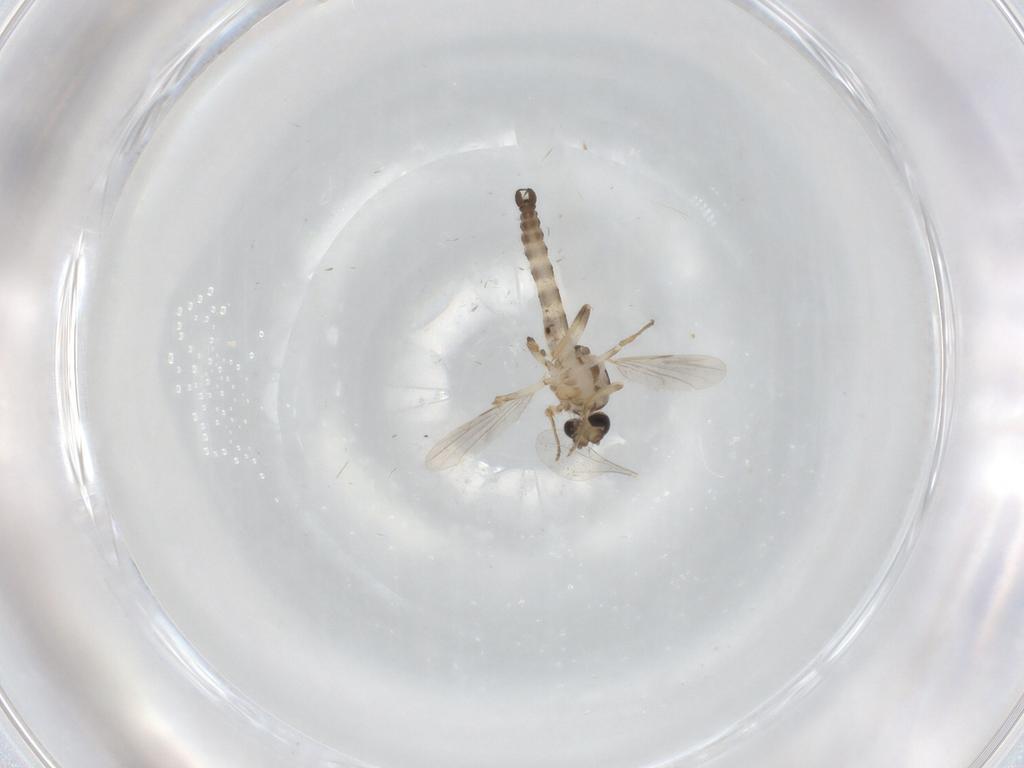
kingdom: Animalia
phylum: Arthropoda
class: Insecta
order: Diptera
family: Ceratopogonidae
